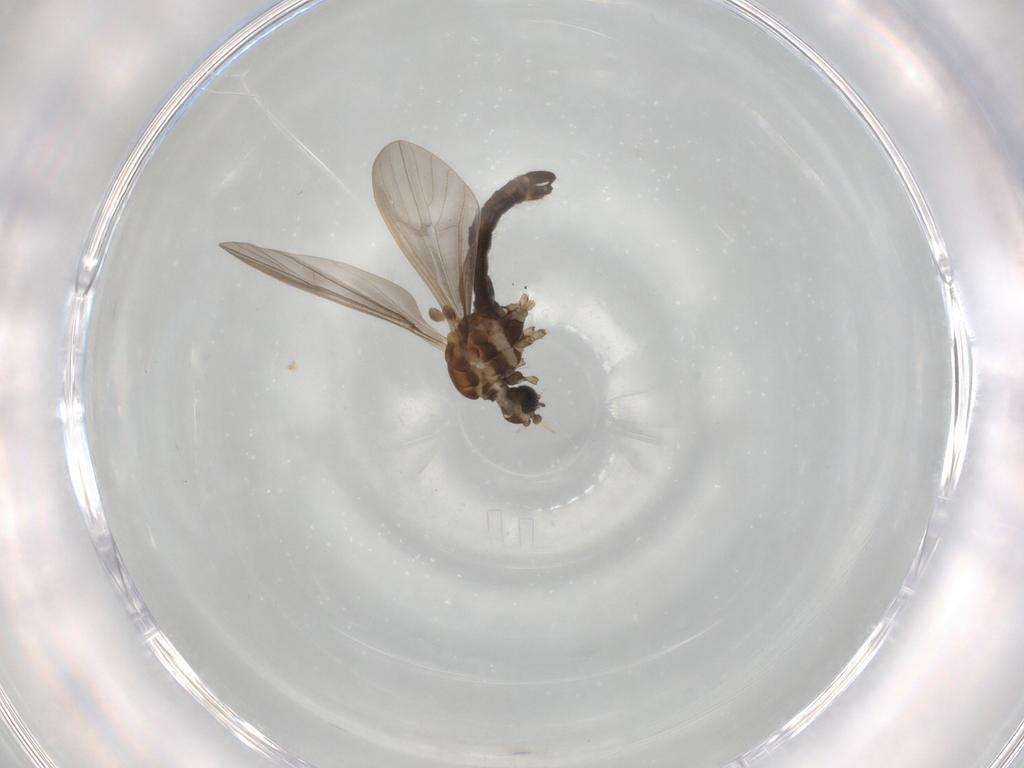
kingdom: Animalia
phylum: Arthropoda
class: Insecta
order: Diptera
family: Limoniidae
